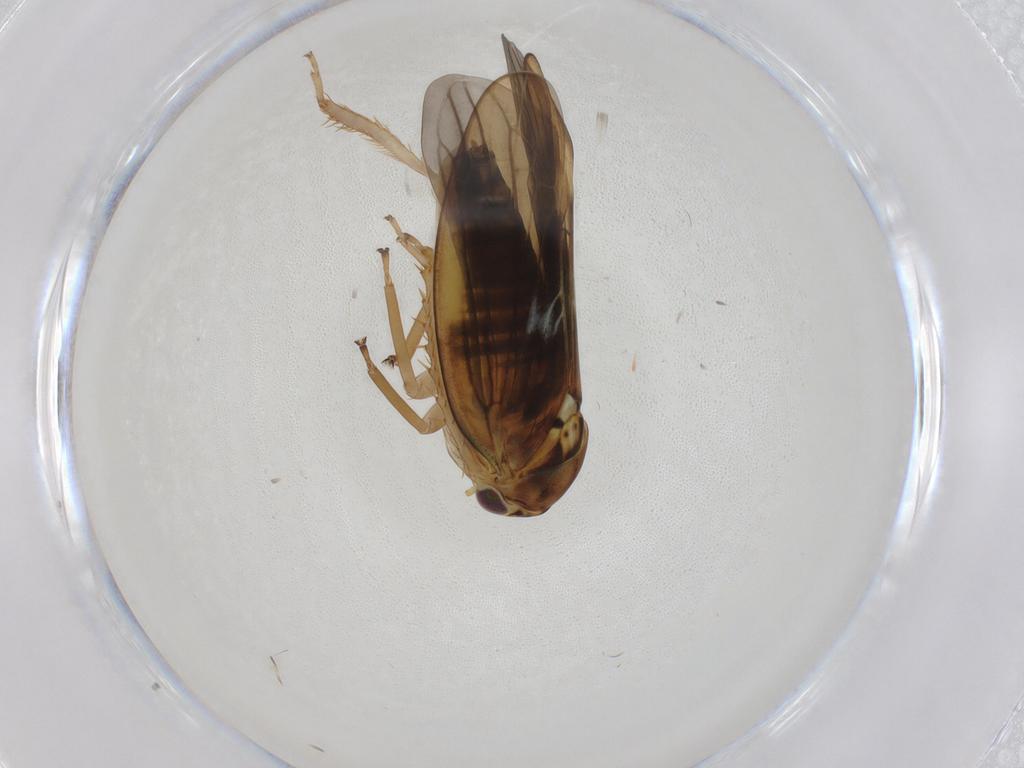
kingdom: Animalia
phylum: Arthropoda
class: Insecta
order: Hemiptera
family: Cicadellidae
